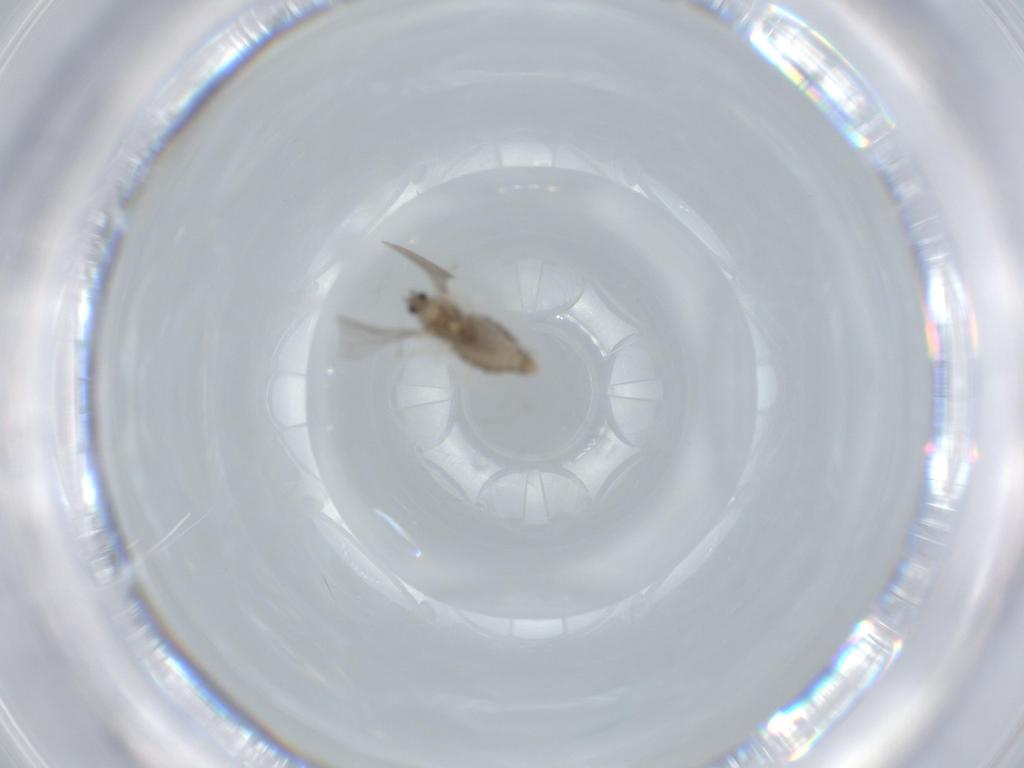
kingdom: Animalia
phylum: Arthropoda
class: Insecta
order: Diptera
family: Cecidomyiidae
